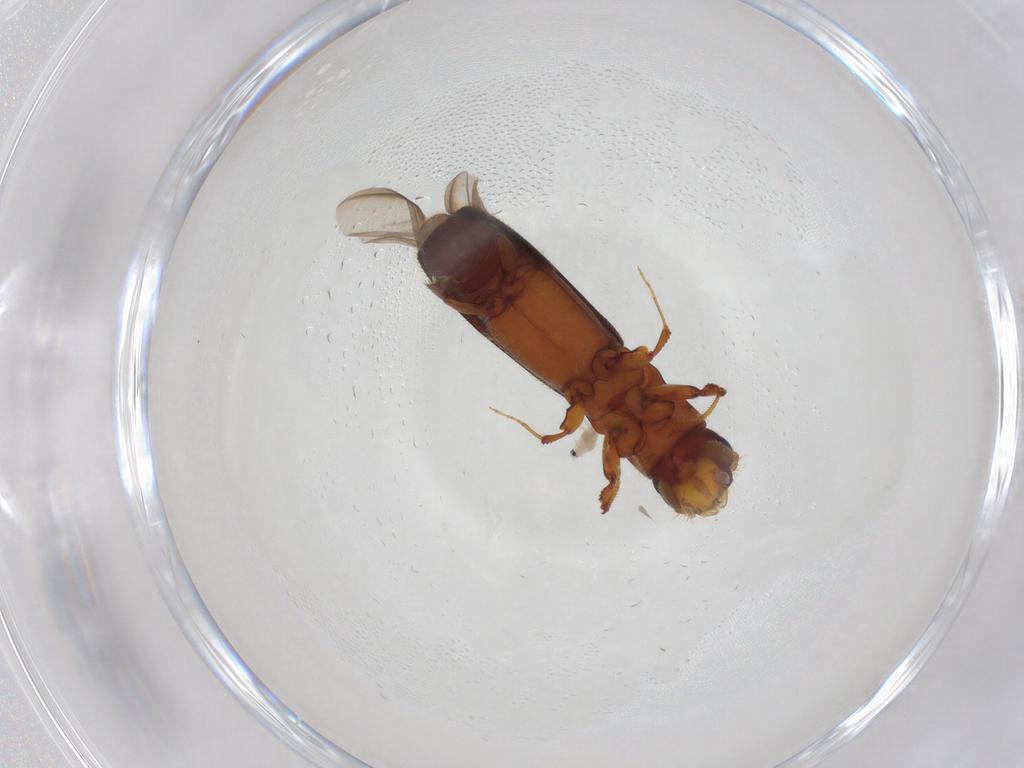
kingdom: Animalia
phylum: Arthropoda
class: Insecta
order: Coleoptera
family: Curculionidae
